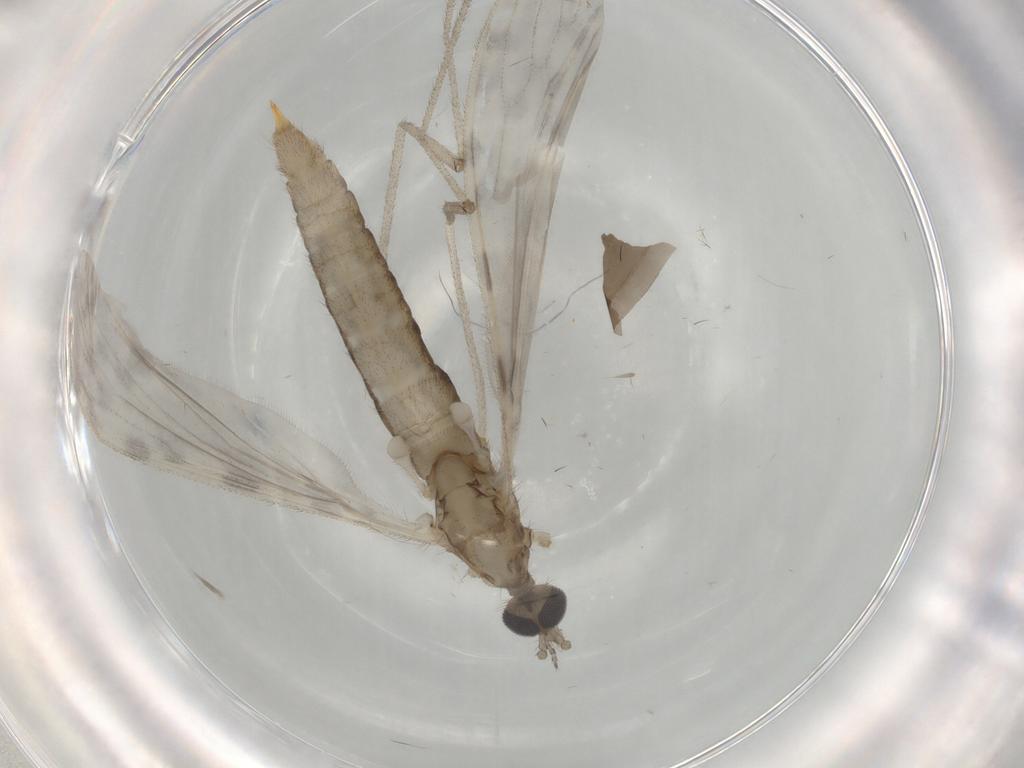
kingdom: Animalia
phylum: Arthropoda
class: Insecta
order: Diptera
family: Limoniidae
